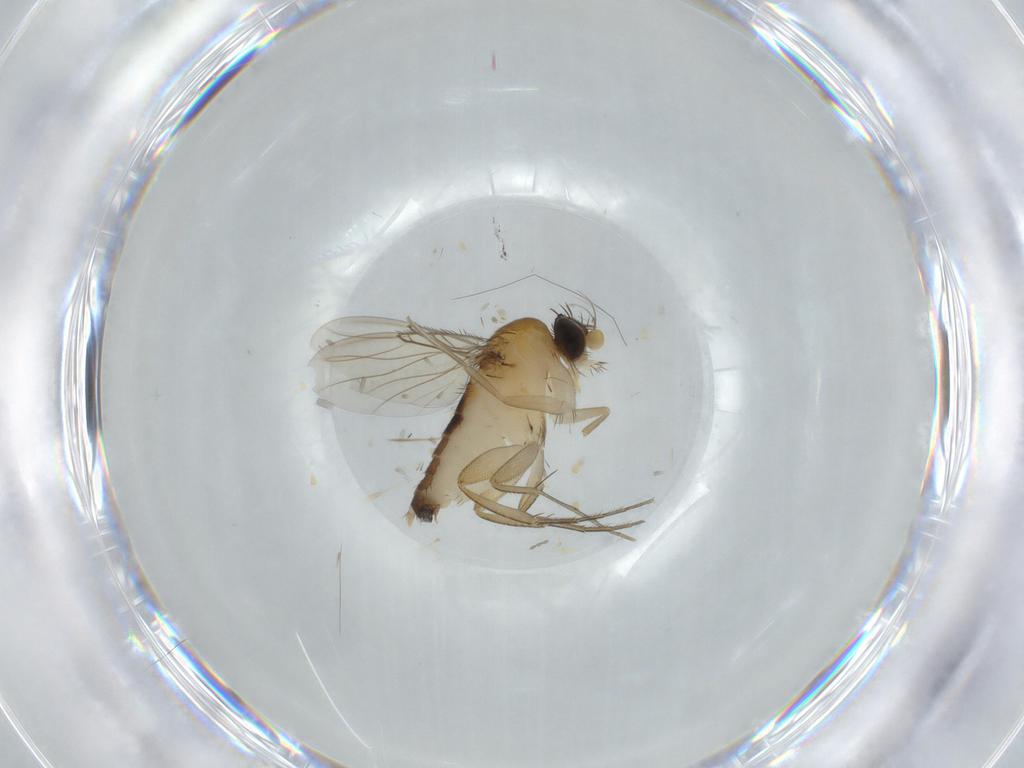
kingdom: Animalia
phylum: Arthropoda
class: Insecta
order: Diptera
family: Phoridae
